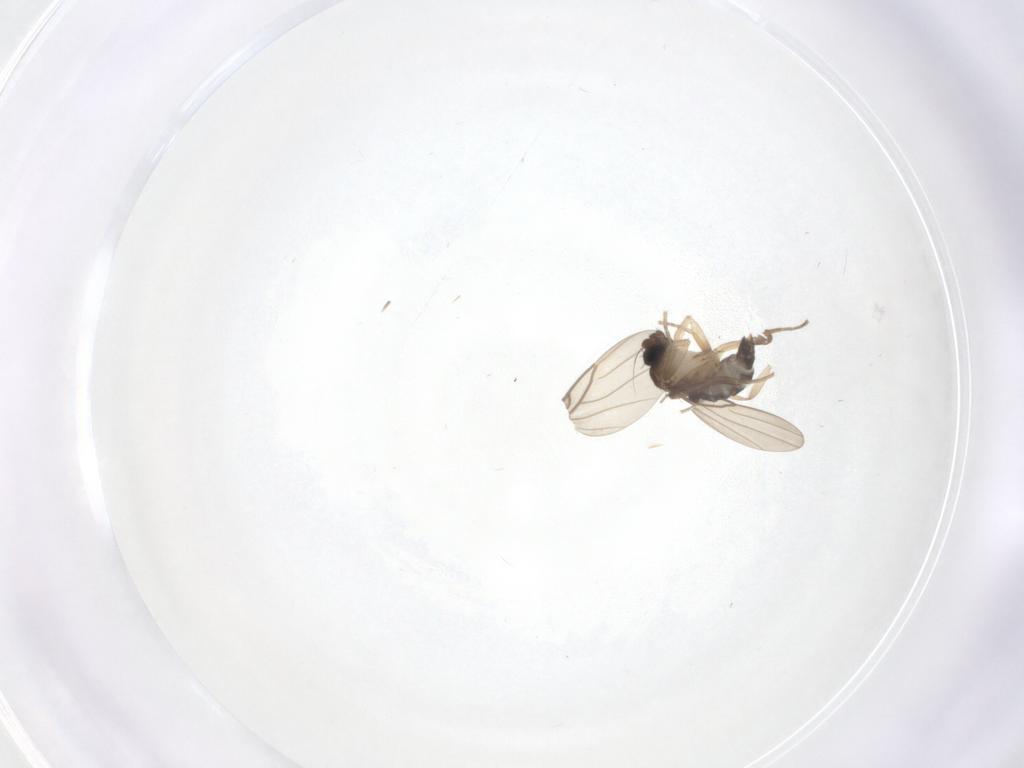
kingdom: Animalia
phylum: Arthropoda
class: Insecta
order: Diptera
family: Phoridae
